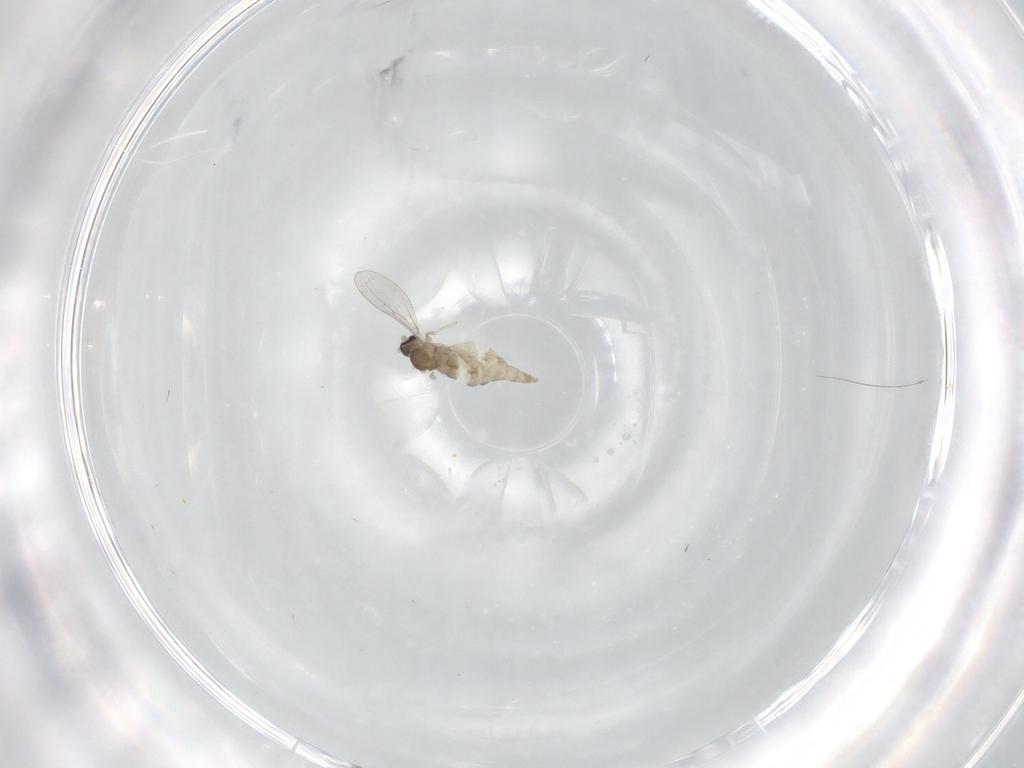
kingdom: Animalia
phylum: Arthropoda
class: Insecta
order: Diptera
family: Cecidomyiidae
